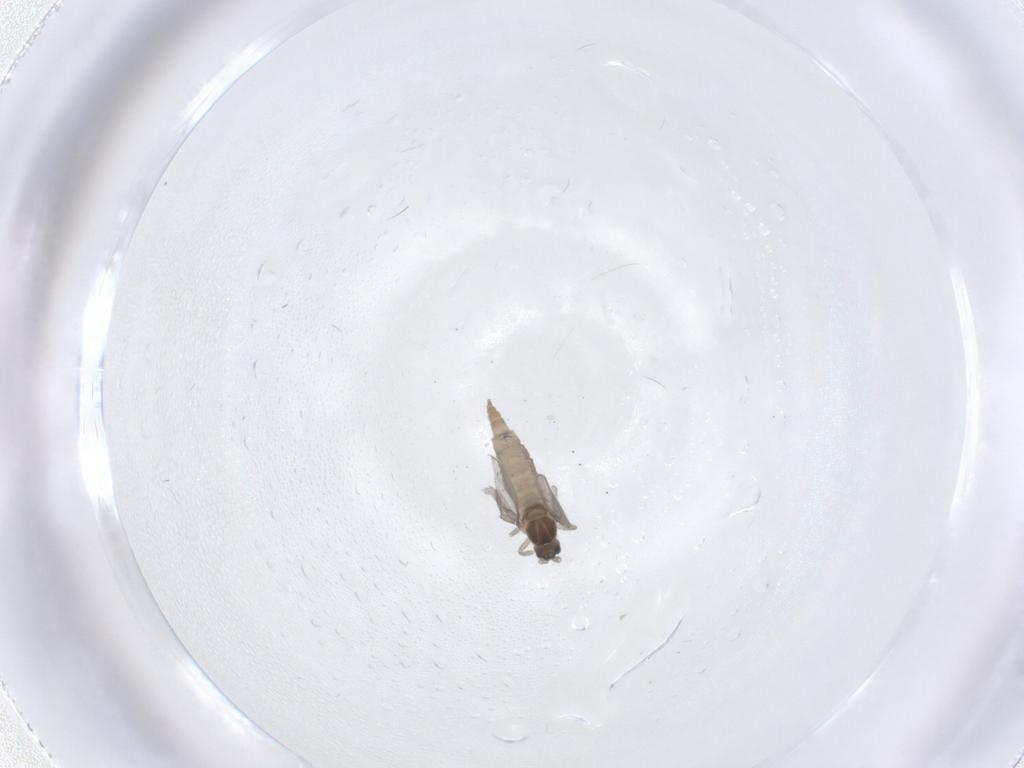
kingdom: Animalia
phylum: Arthropoda
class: Insecta
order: Diptera
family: Cecidomyiidae
